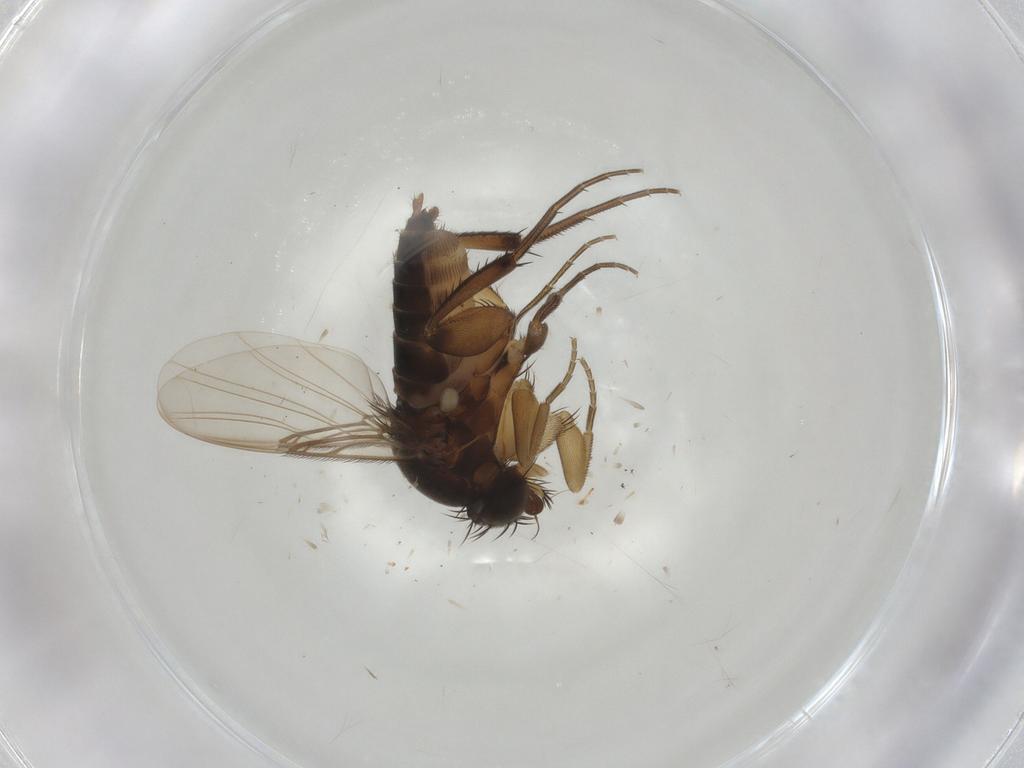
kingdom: Animalia
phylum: Arthropoda
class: Insecta
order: Diptera
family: Phoridae
